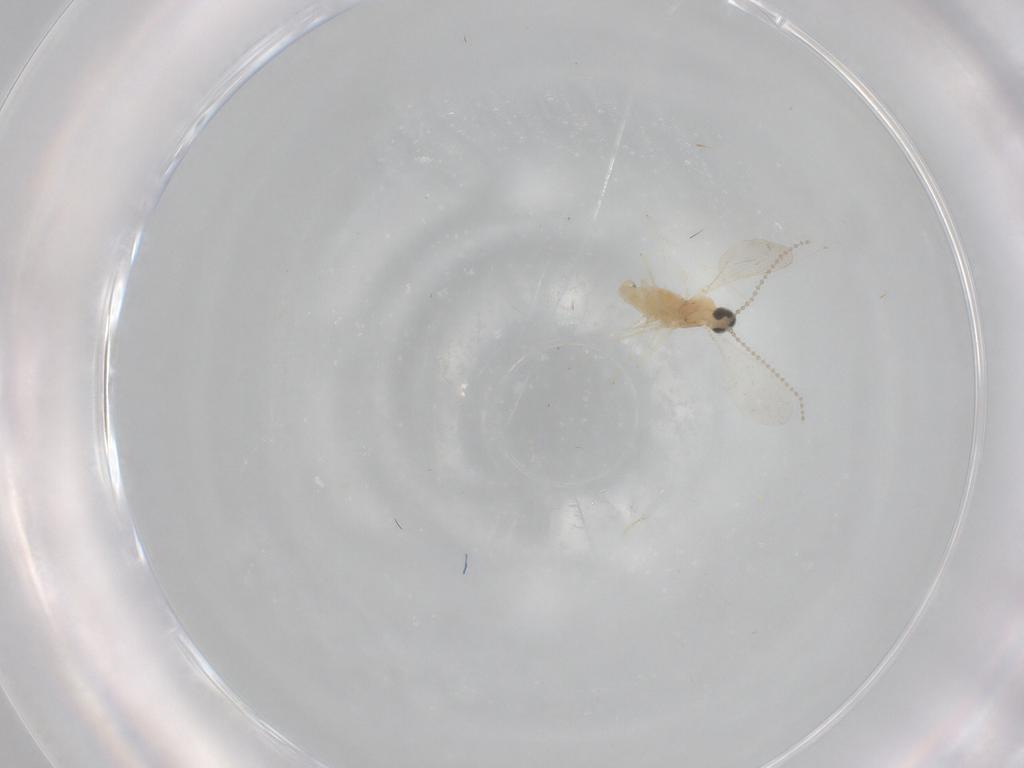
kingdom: Animalia
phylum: Arthropoda
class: Insecta
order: Diptera
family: Cecidomyiidae
